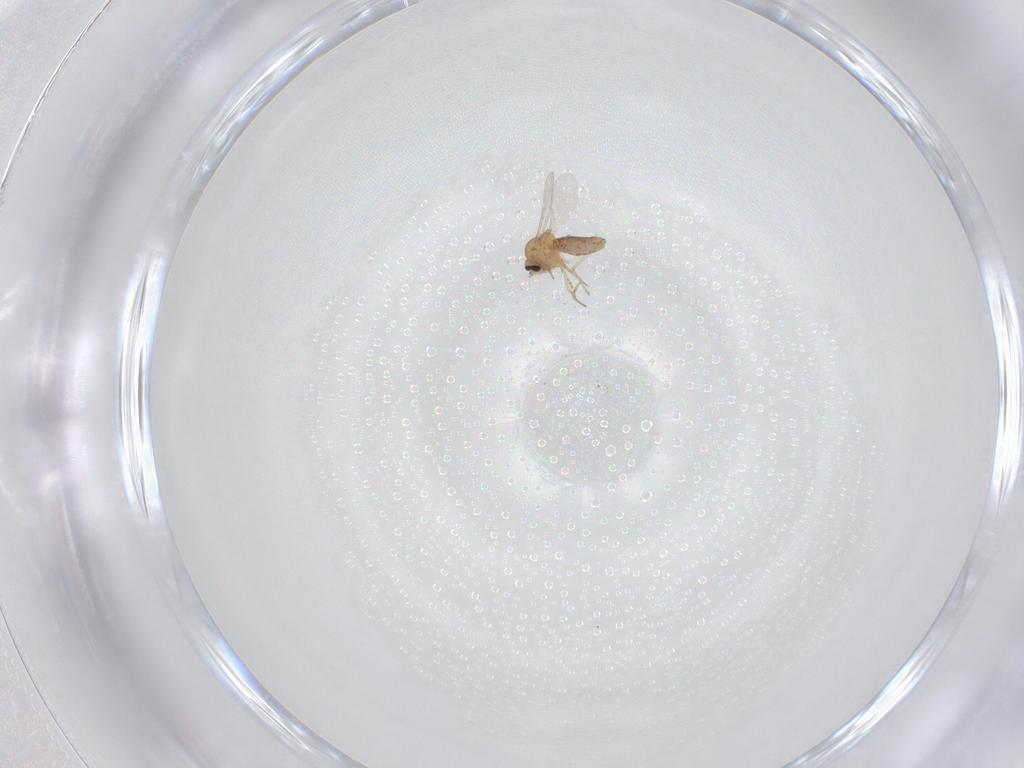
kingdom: Animalia
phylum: Arthropoda
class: Insecta
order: Diptera
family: Ceratopogonidae
